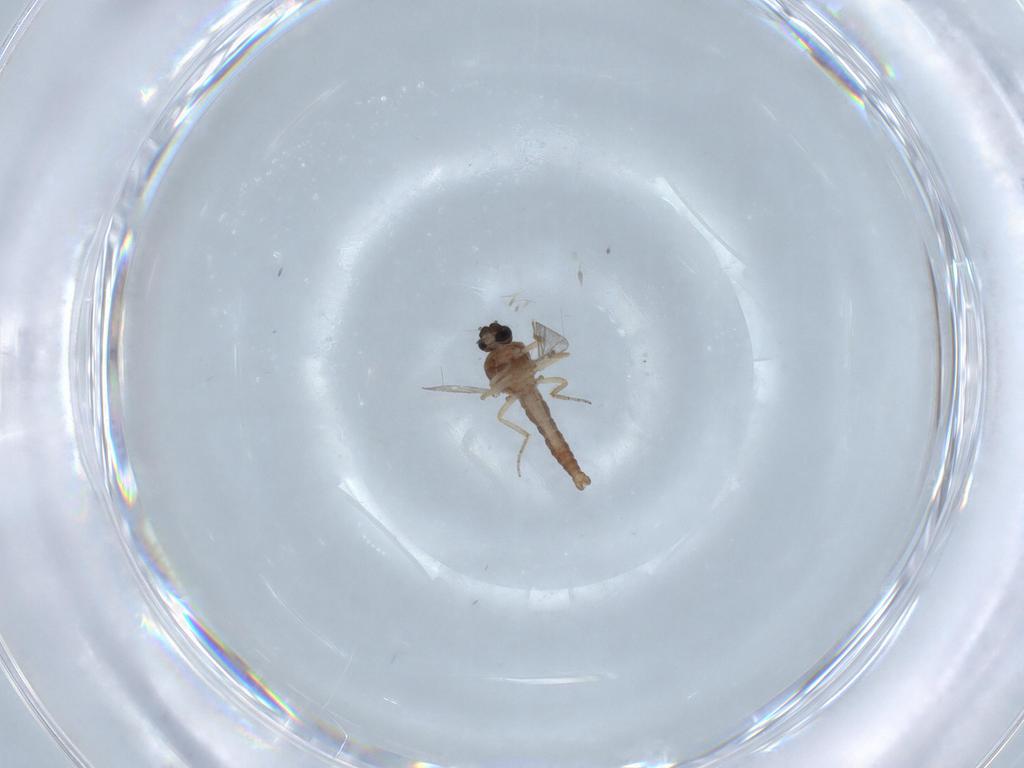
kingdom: Animalia
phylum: Arthropoda
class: Insecta
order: Diptera
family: Ceratopogonidae
